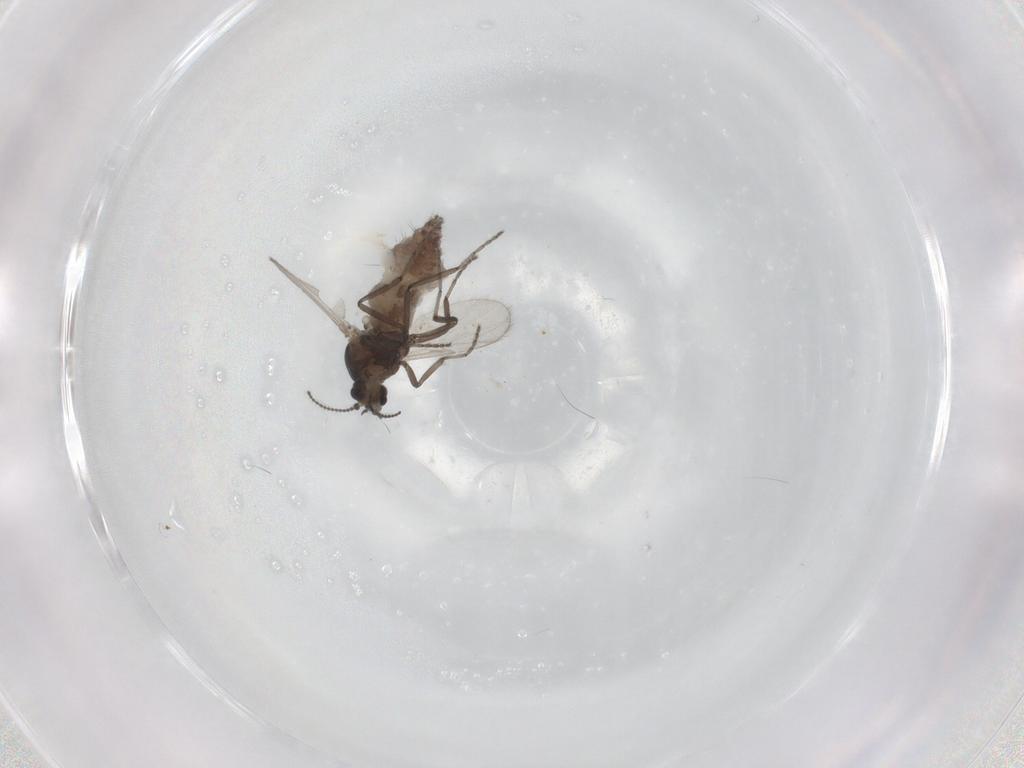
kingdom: Animalia
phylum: Arthropoda
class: Insecta
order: Diptera
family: Ceratopogonidae
